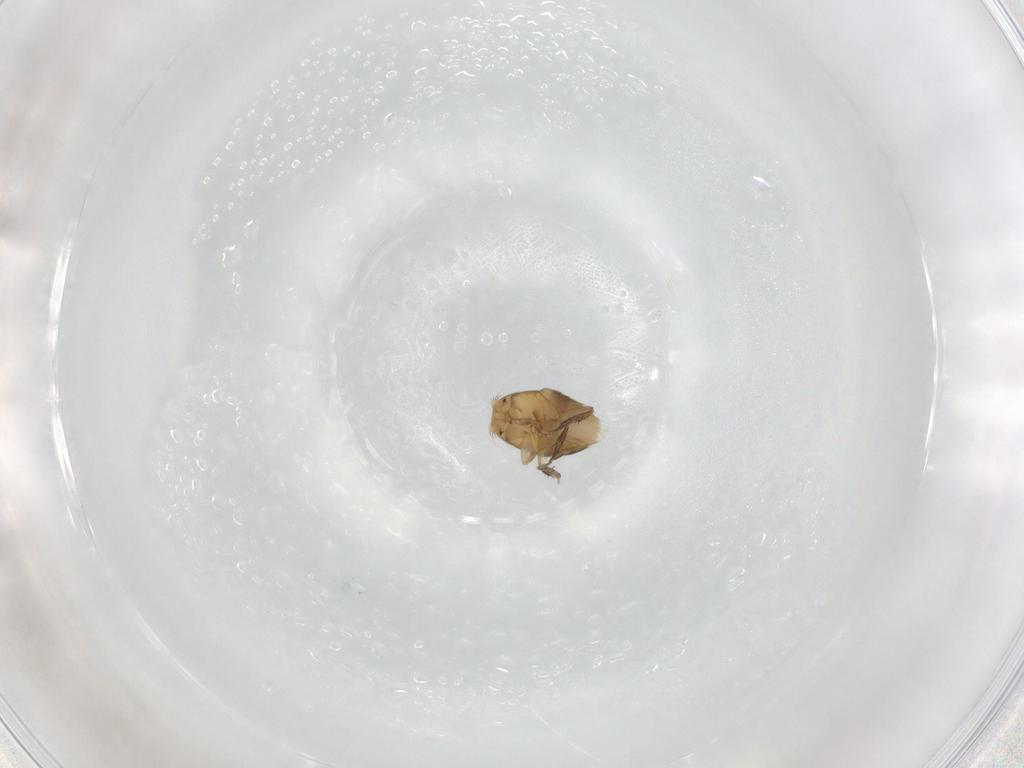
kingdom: Animalia
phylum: Arthropoda
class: Insecta
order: Diptera
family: Phoridae
